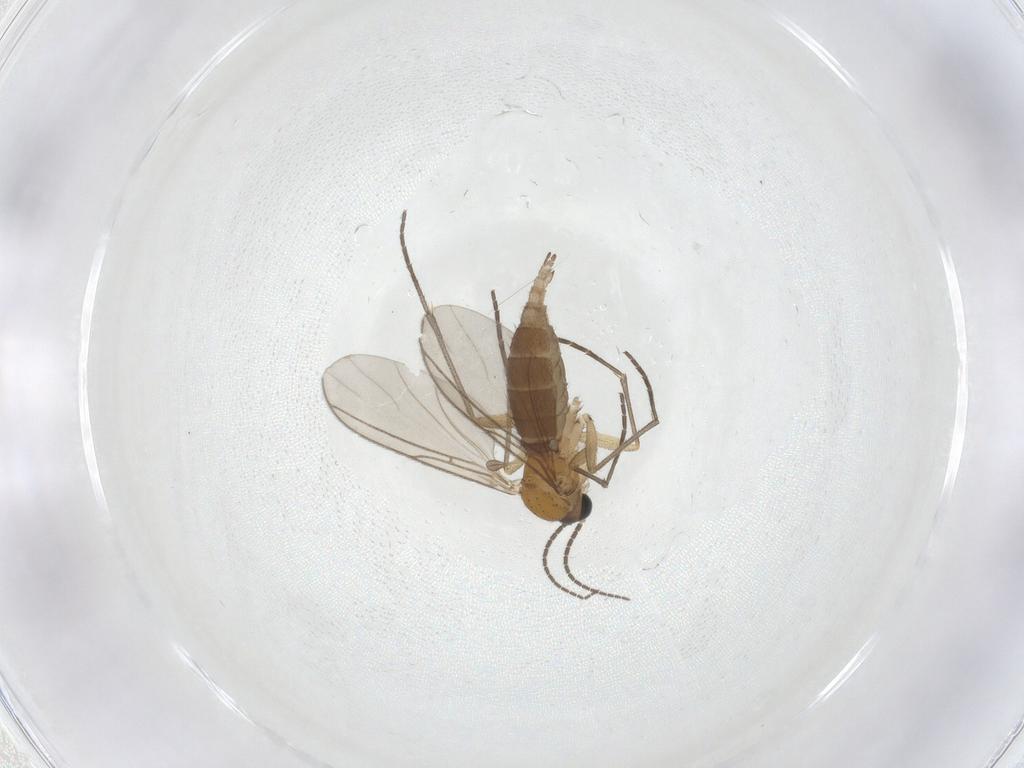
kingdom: Animalia
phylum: Arthropoda
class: Insecta
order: Diptera
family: Sciaridae
